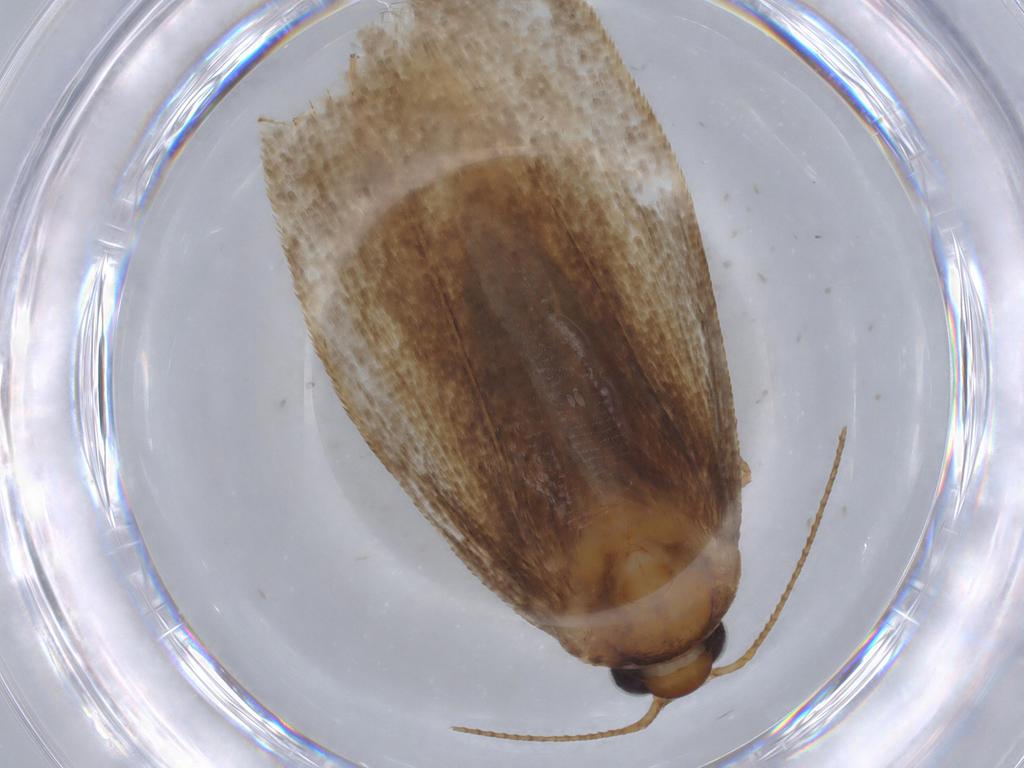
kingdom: Animalia
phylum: Arthropoda
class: Insecta
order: Lepidoptera
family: Oecophoridae
